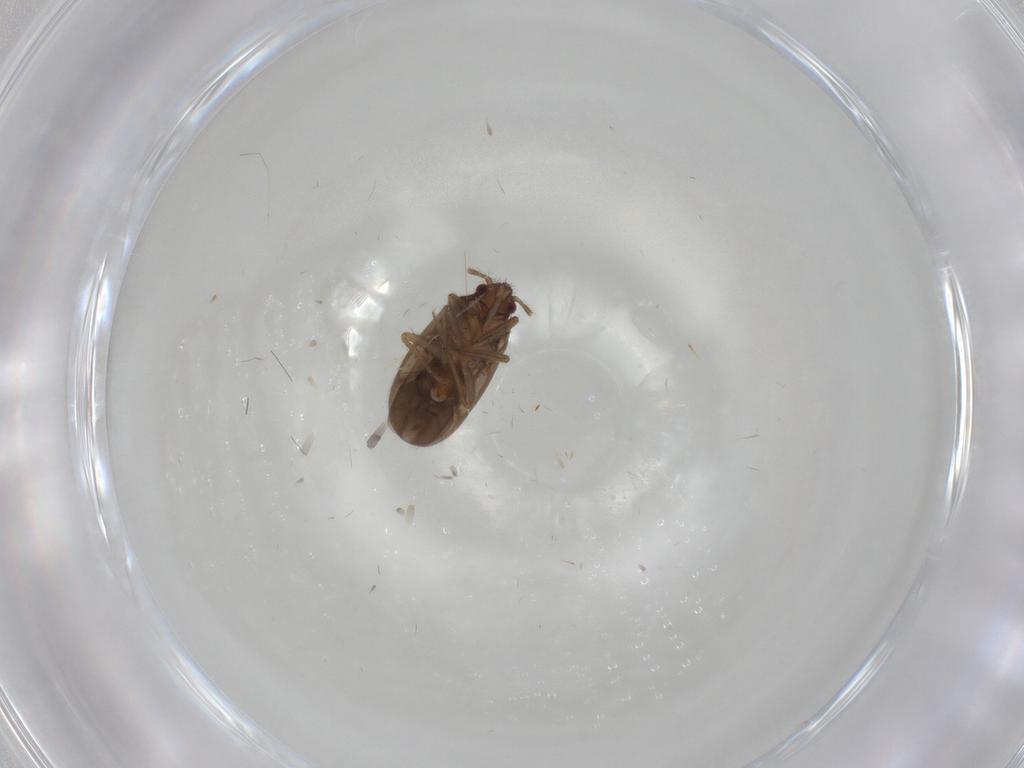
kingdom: Animalia
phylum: Arthropoda
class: Insecta
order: Hemiptera
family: Ceratocombidae
